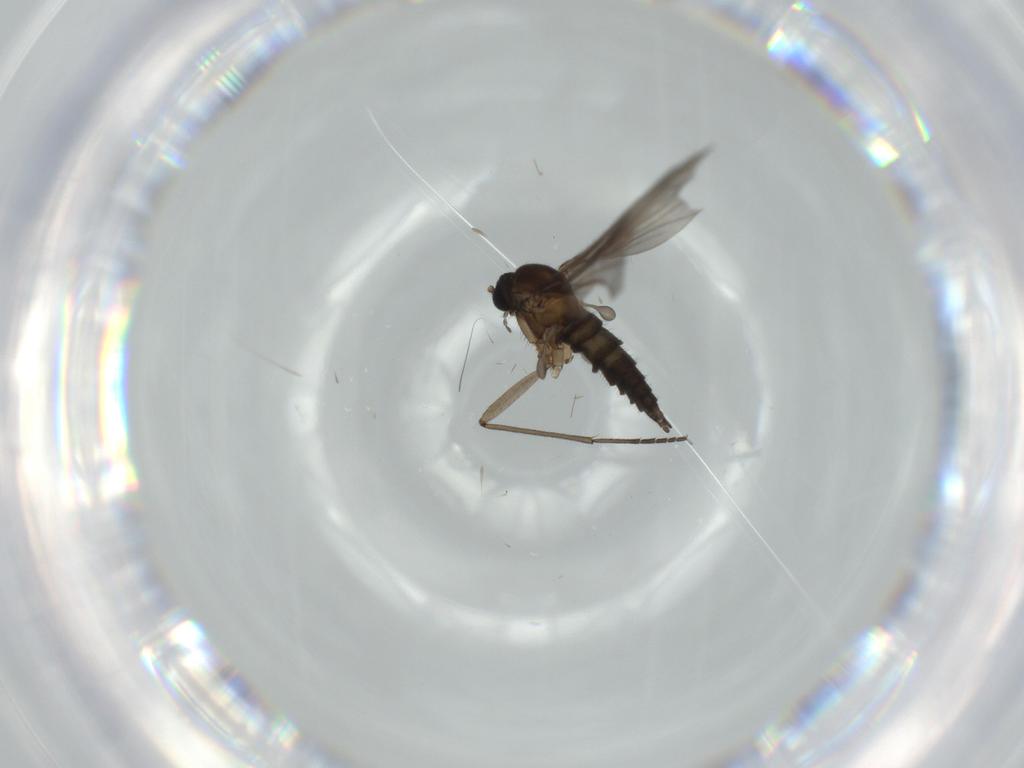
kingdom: Animalia
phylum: Arthropoda
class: Insecta
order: Diptera
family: Sciaridae
